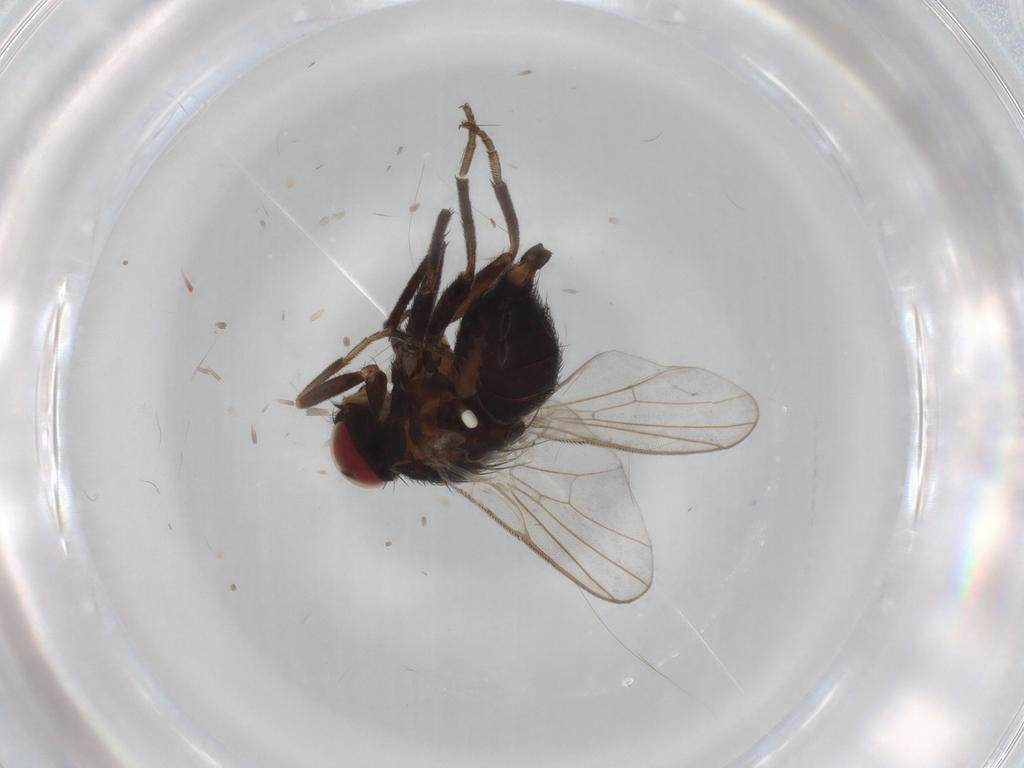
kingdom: Animalia
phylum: Arthropoda
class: Insecta
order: Diptera
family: Agromyzidae
